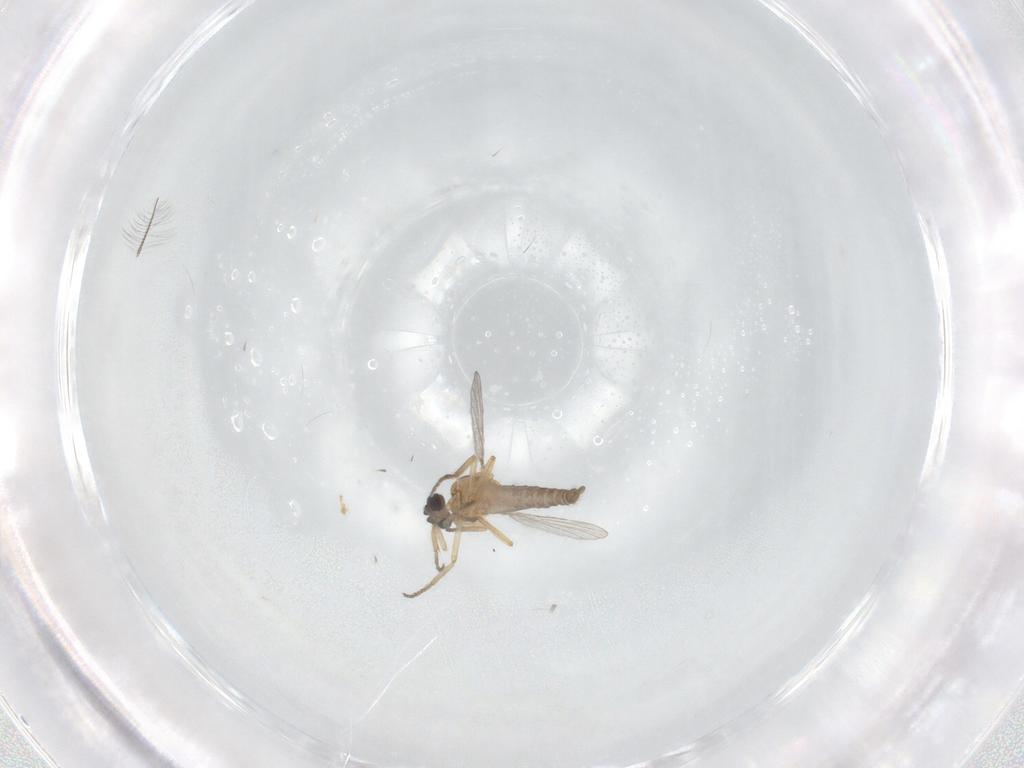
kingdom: Animalia
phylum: Arthropoda
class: Insecta
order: Diptera
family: Ceratopogonidae
